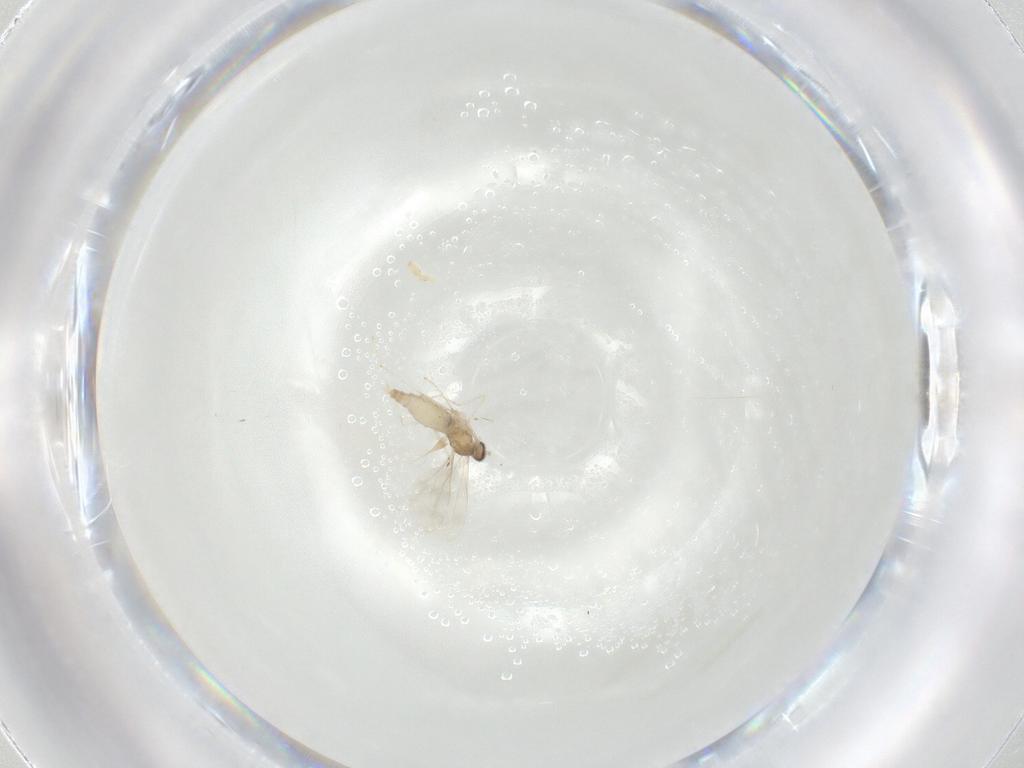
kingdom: Animalia
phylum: Arthropoda
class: Insecta
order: Diptera
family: Cecidomyiidae
